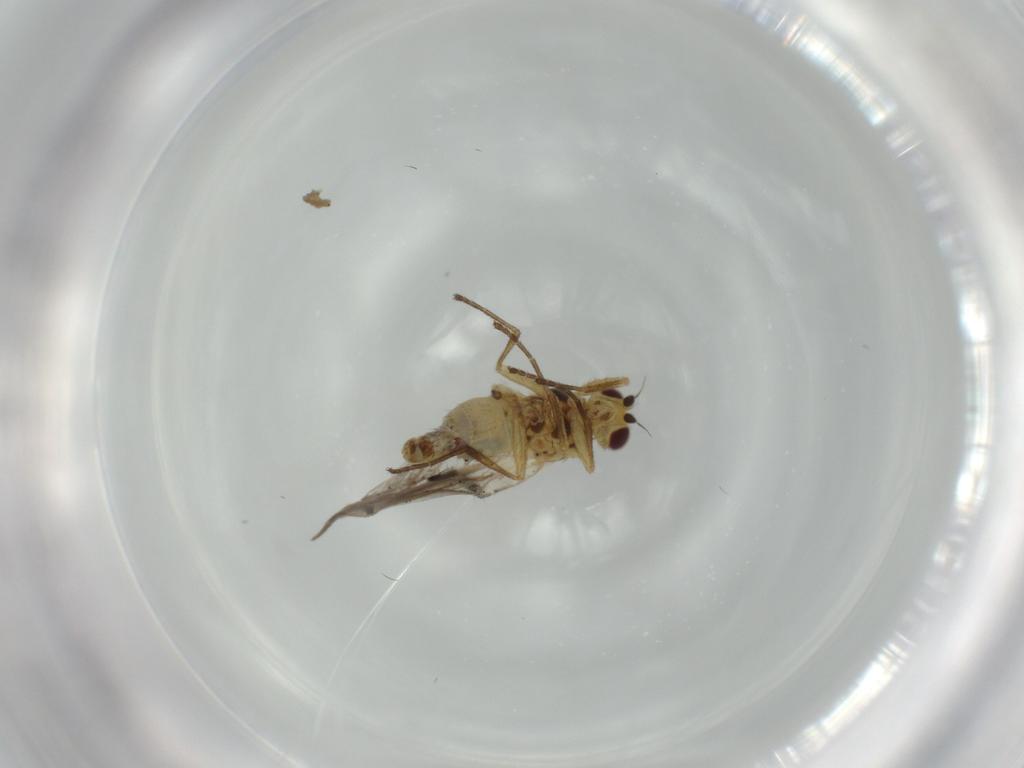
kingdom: Animalia
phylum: Arthropoda
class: Insecta
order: Diptera
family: Agromyzidae
